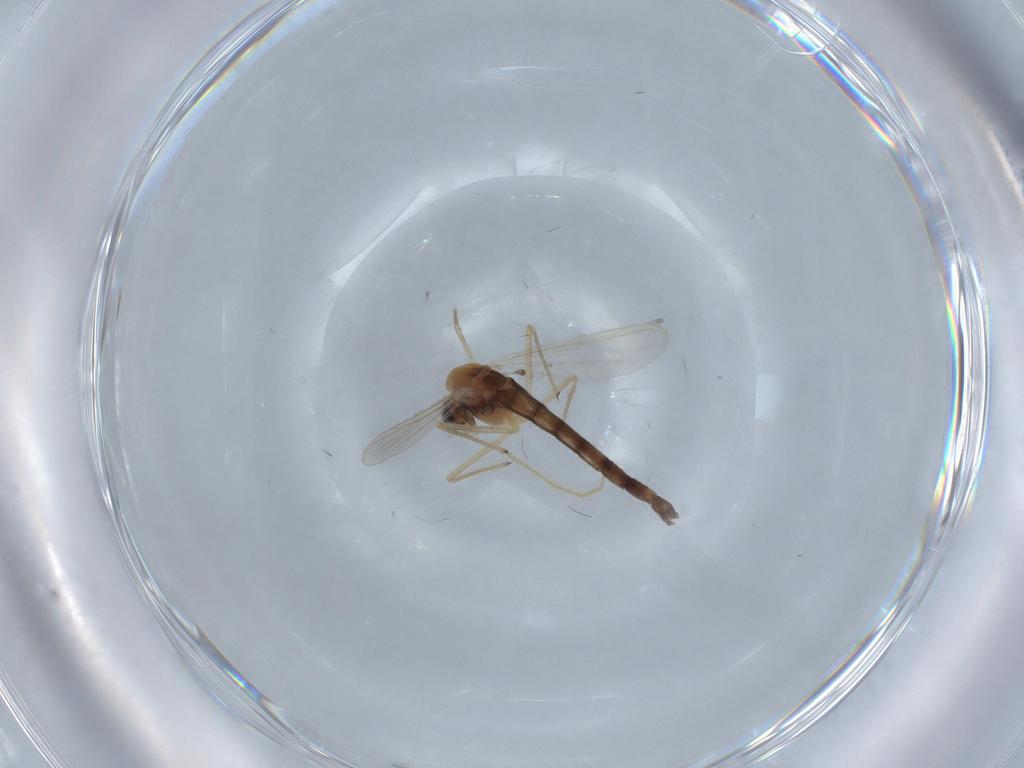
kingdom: Animalia
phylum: Arthropoda
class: Insecta
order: Diptera
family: Chironomidae
